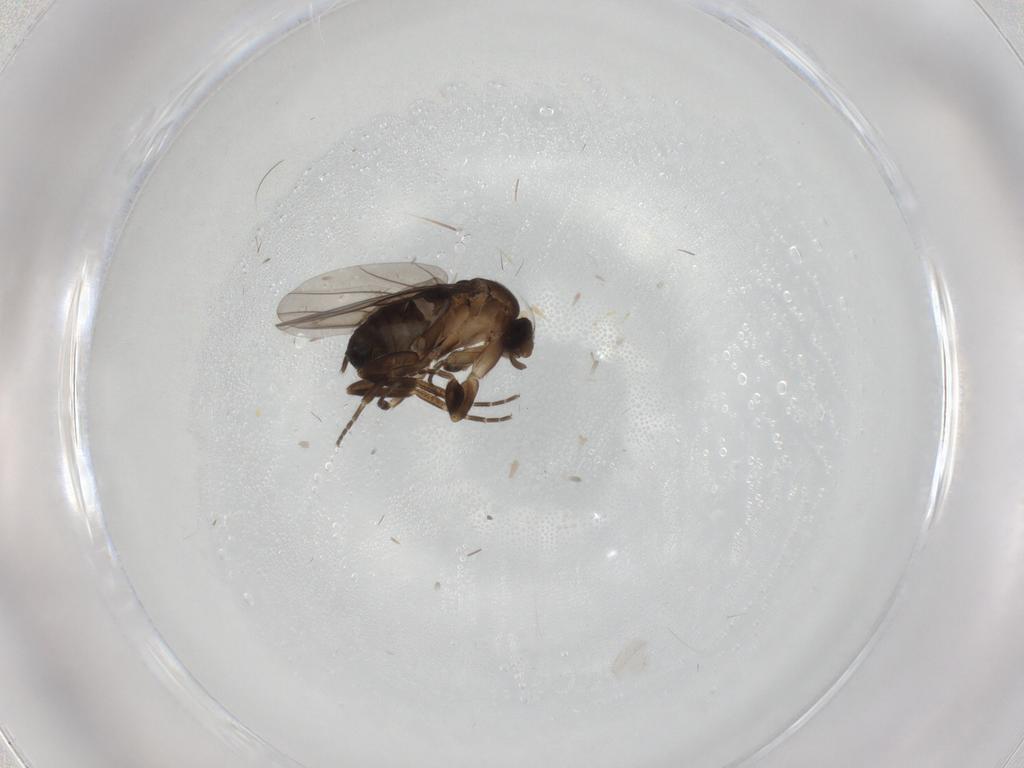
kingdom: Animalia
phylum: Arthropoda
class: Insecta
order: Diptera
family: Phoridae
